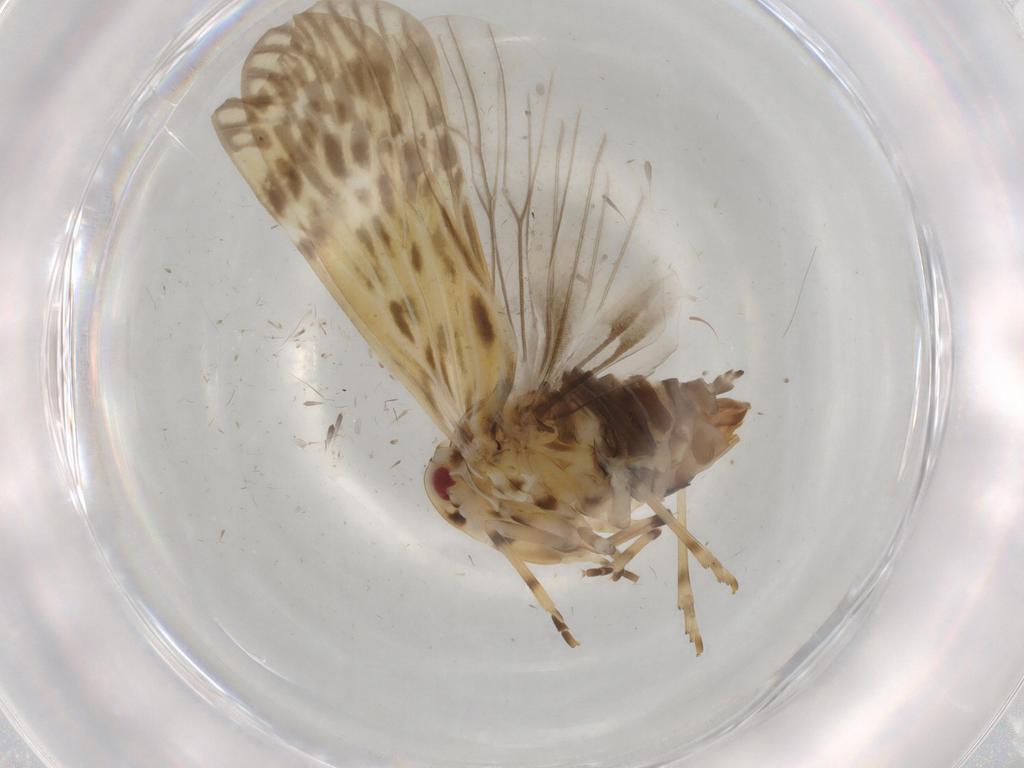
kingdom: Animalia
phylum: Arthropoda
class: Insecta
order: Hemiptera
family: Derbidae
